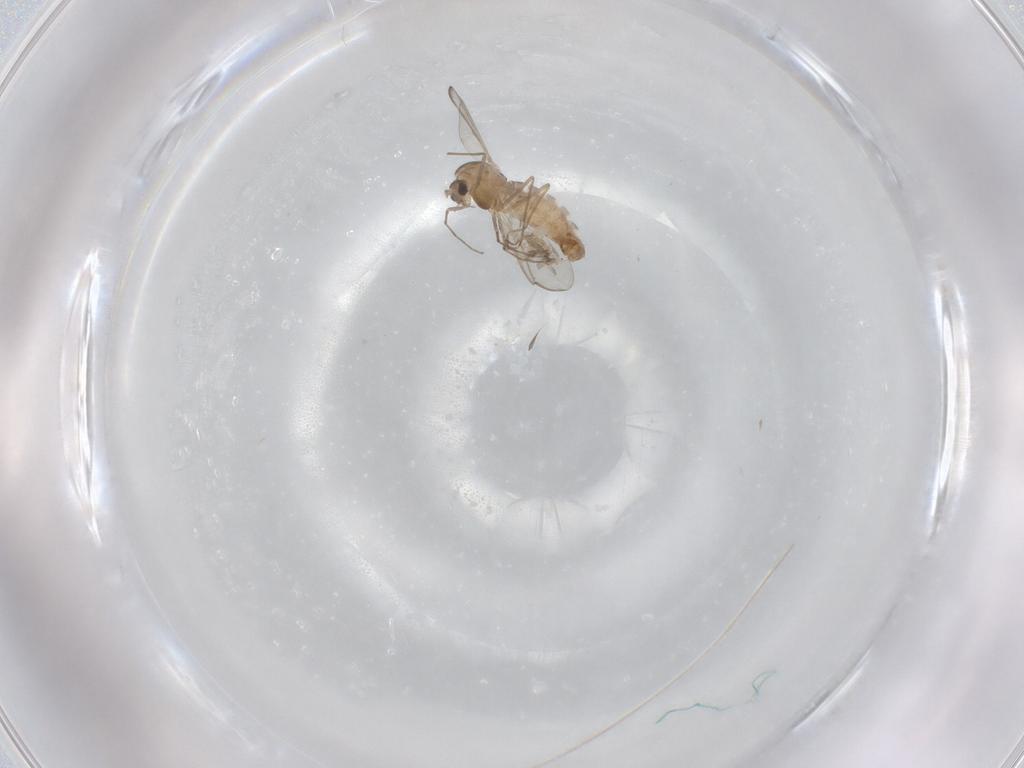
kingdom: Animalia
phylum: Arthropoda
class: Insecta
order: Diptera
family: Chironomidae
